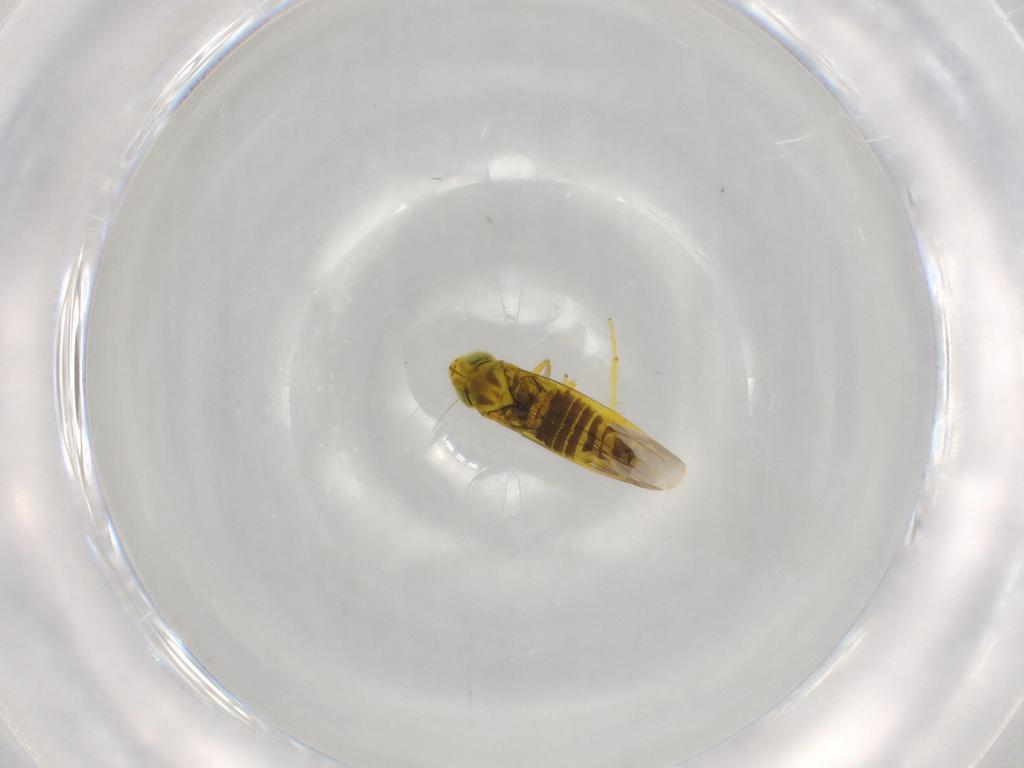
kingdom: Animalia
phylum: Arthropoda
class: Insecta
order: Hemiptera
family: Cicadellidae
